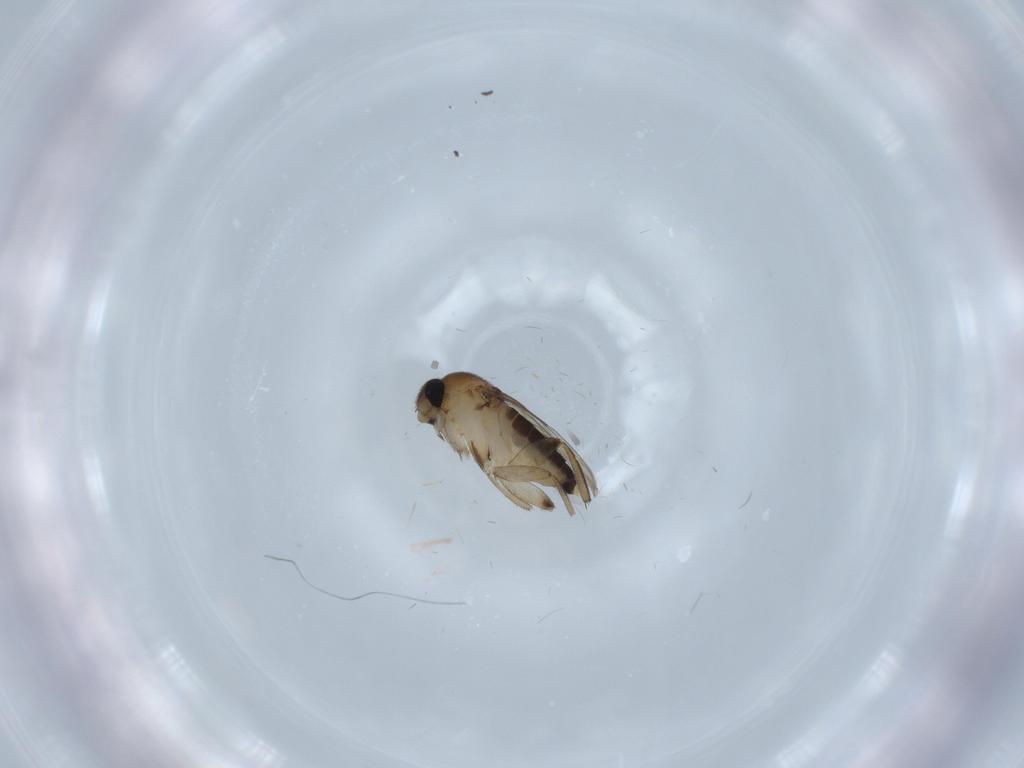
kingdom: Animalia
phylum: Arthropoda
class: Insecta
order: Diptera
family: Phoridae
